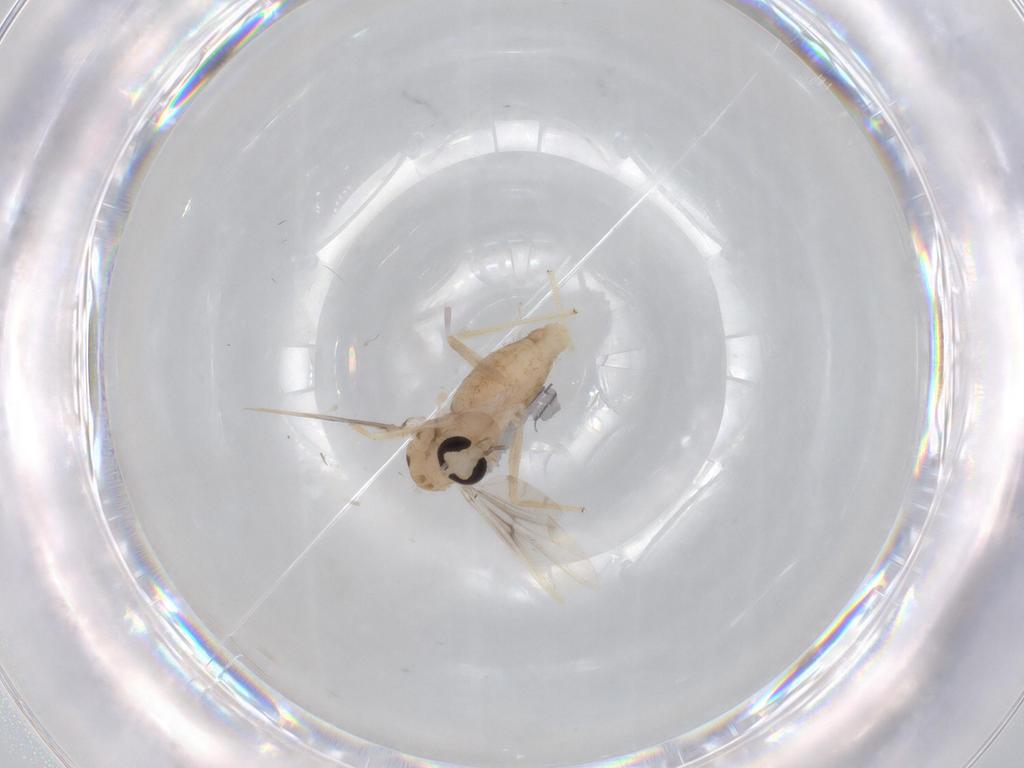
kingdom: Animalia
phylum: Arthropoda
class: Insecta
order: Diptera
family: Chironomidae
